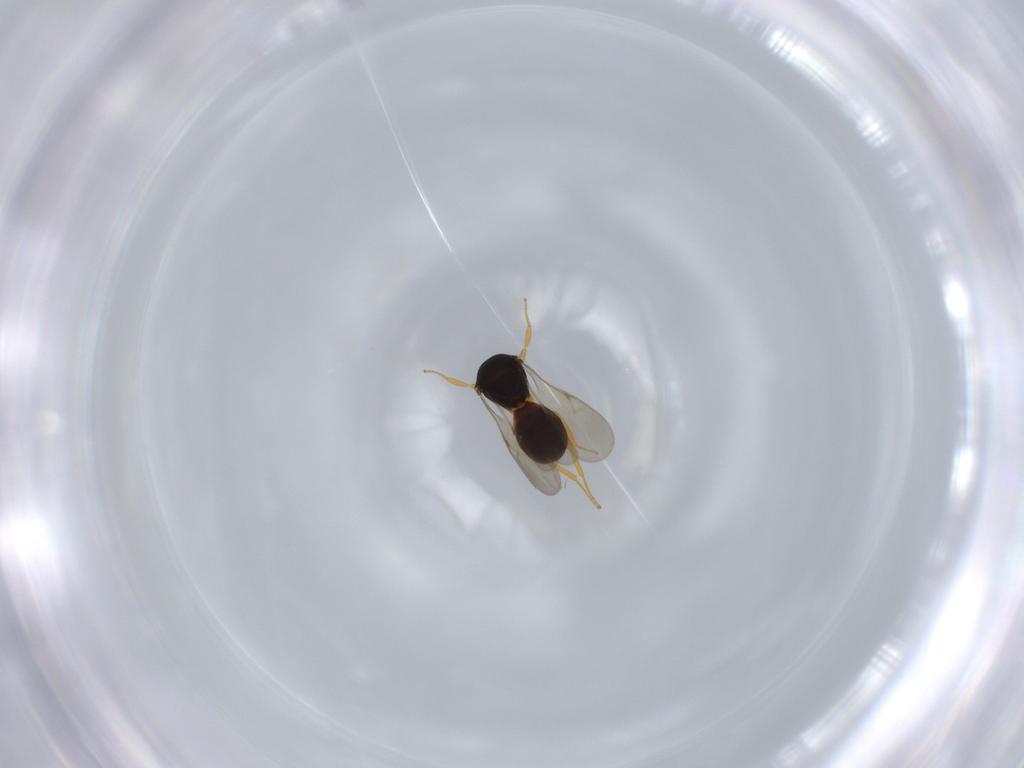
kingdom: Animalia
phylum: Arthropoda
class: Insecta
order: Hymenoptera
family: Scelionidae
